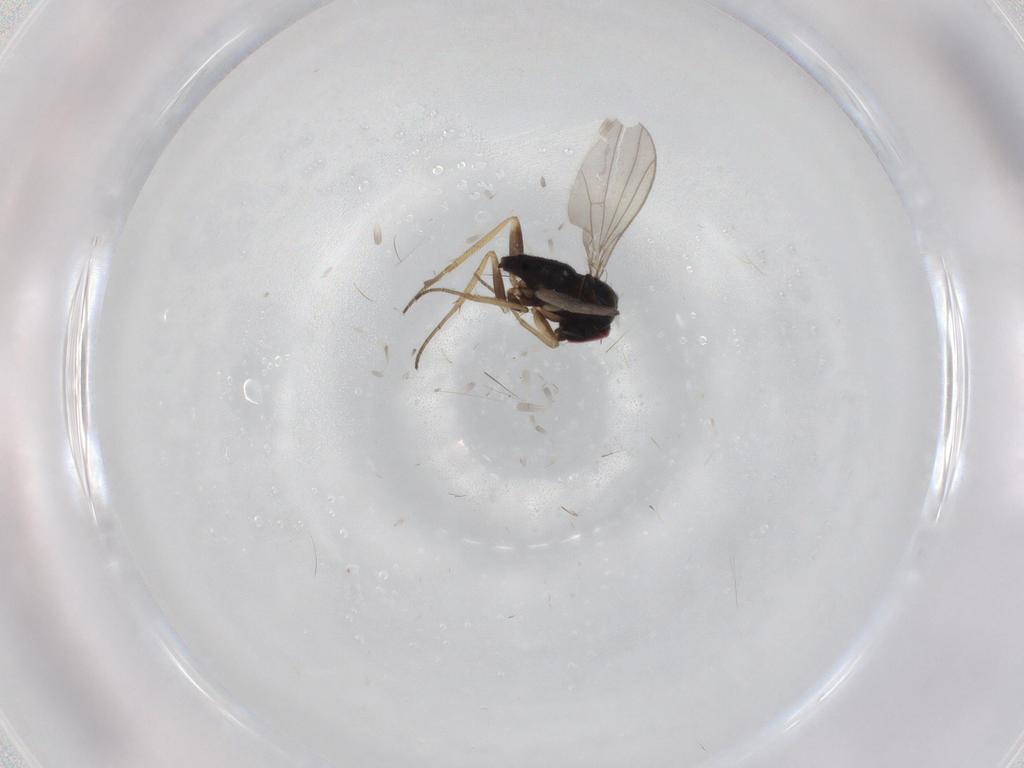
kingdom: Animalia
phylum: Arthropoda
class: Insecta
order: Diptera
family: Dolichopodidae
